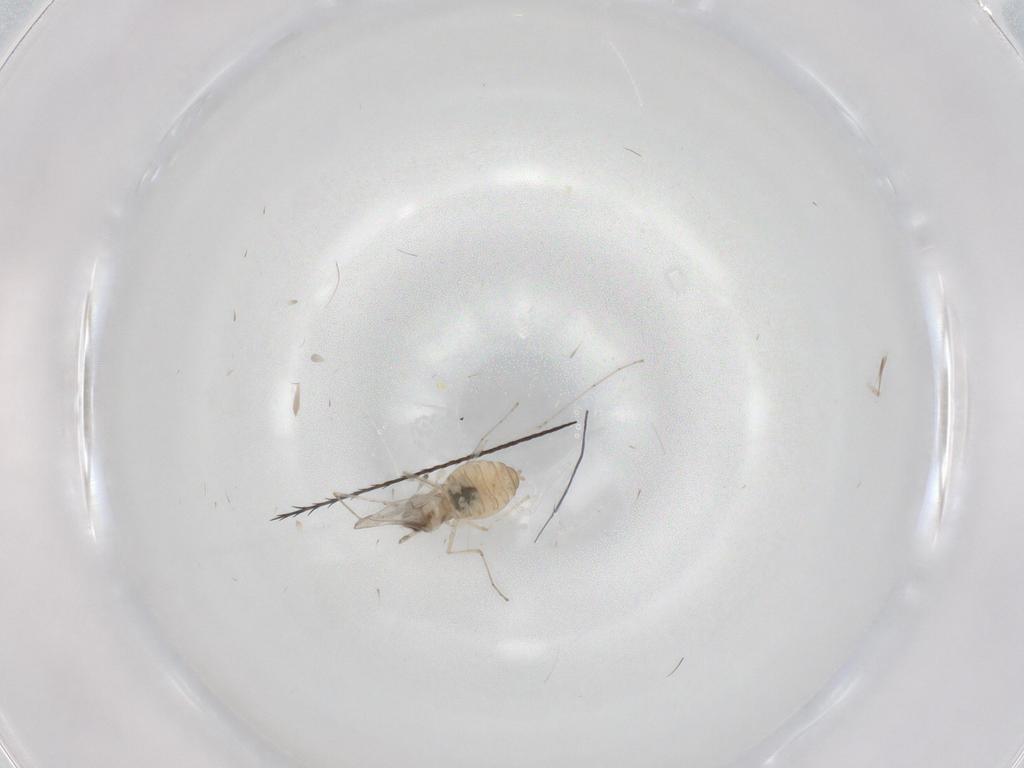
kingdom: Animalia
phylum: Arthropoda
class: Insecta
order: Diptera
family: Cecidomyiidae
